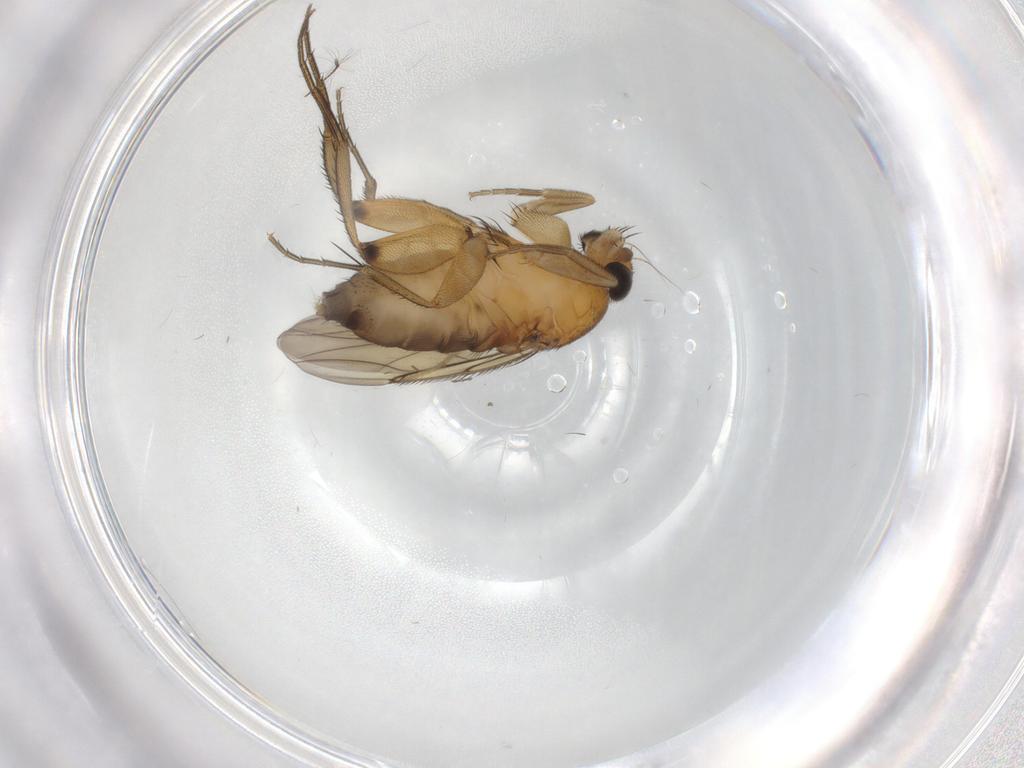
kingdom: Animalia
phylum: Arthropoda
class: Insecta
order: Diptera
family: Phoridae
